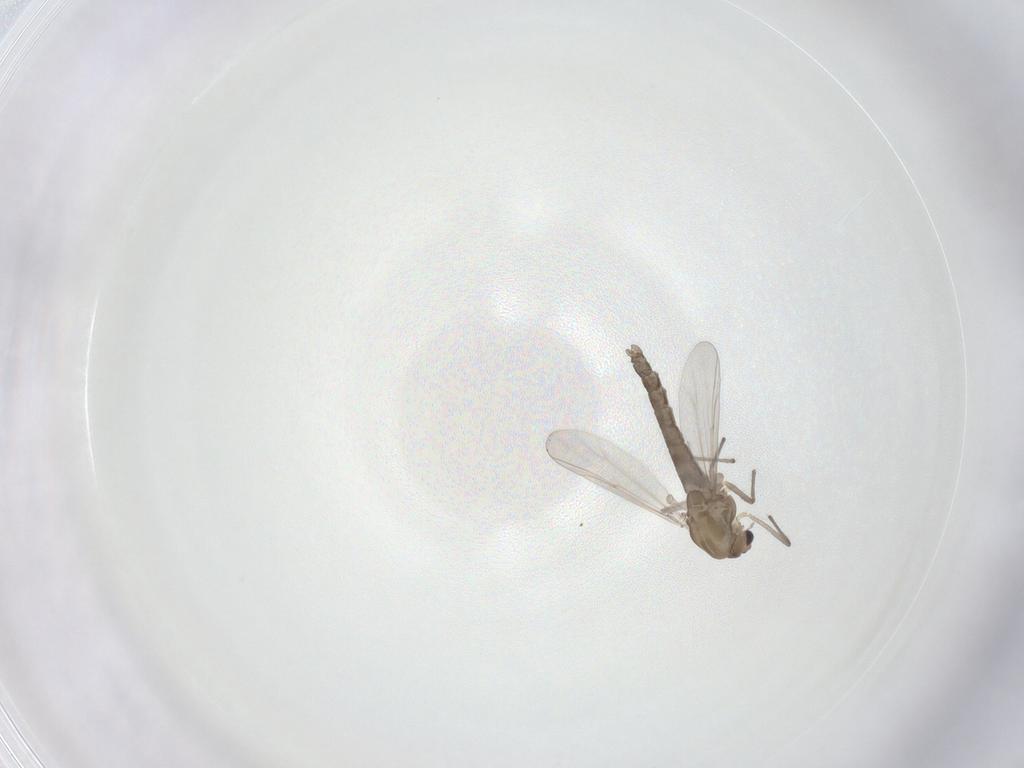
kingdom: Animalia
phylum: Arthropoda
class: Insecta
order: Diptera
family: Chironomidae
